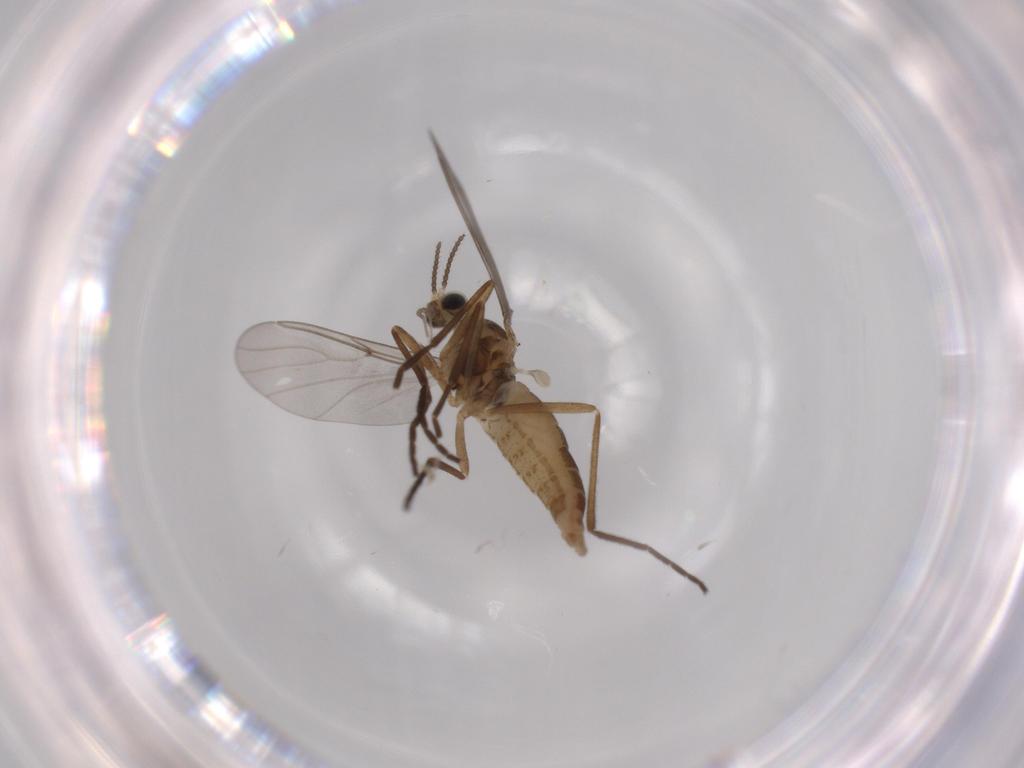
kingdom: Animalia
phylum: Arthropoda
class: Insecta
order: Diptera
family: Cecidomyiidae
